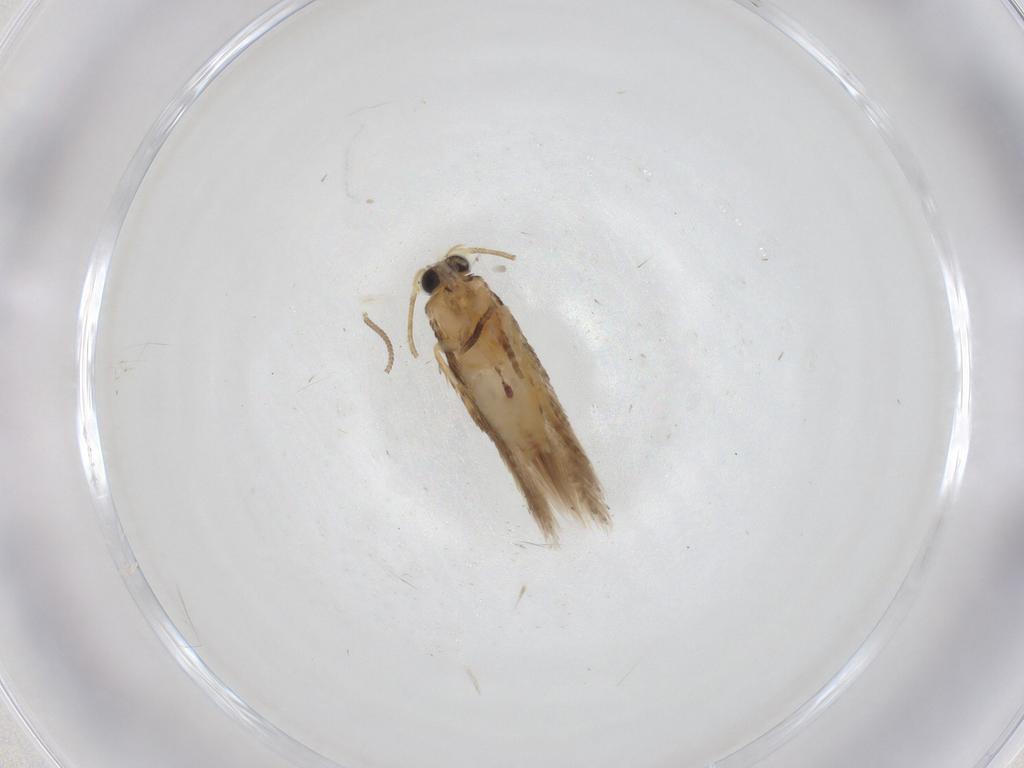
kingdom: Animalia
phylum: Arthropoda
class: Insecta
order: Lepidoptera
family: Nepticulidae
